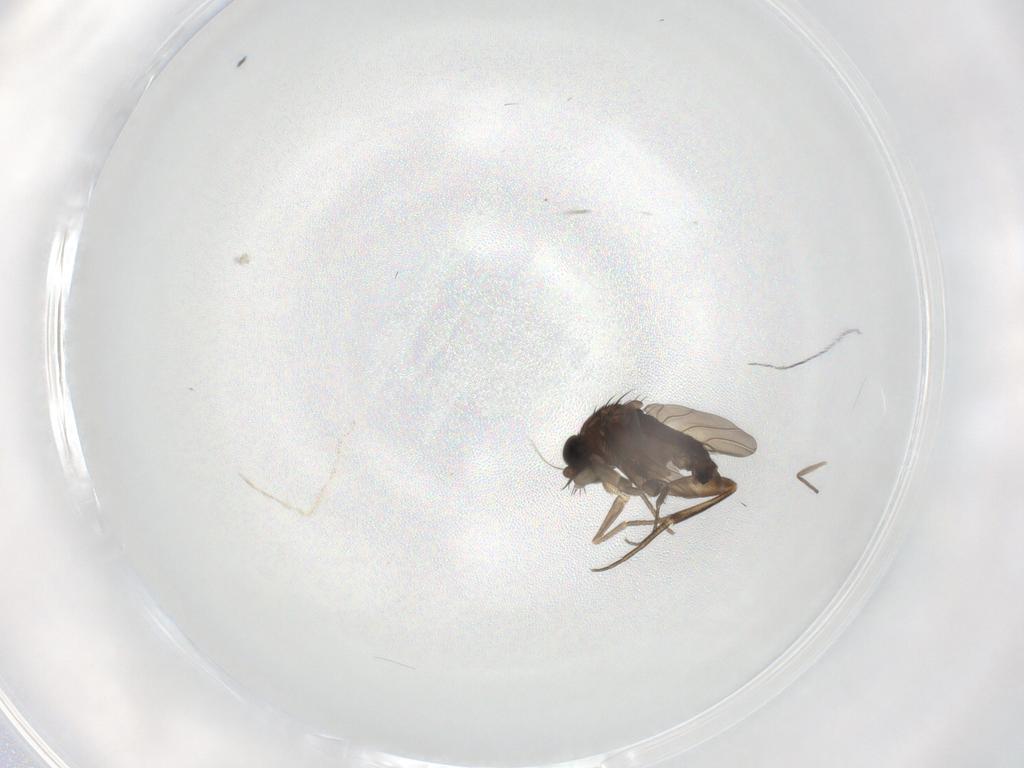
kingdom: Animalia
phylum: Arthropoda
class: Insecta
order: Diptera
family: Phoridae
